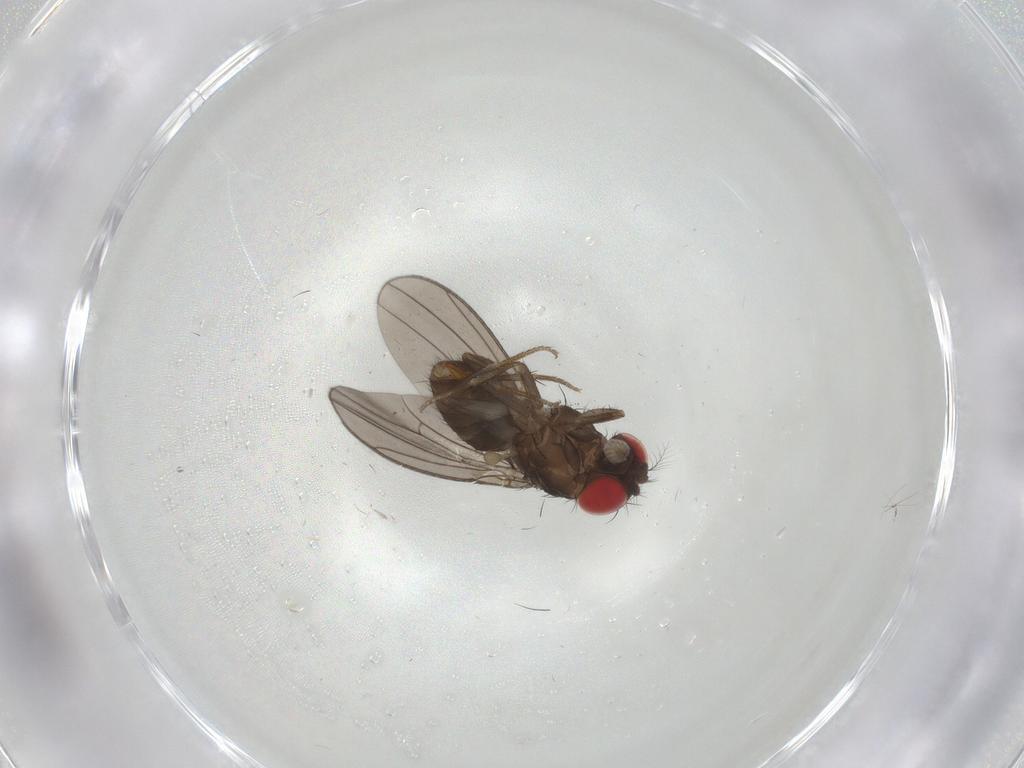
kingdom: Animalia
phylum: Arthropoda
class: Insecta
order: Diptera
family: Drosophilidae
